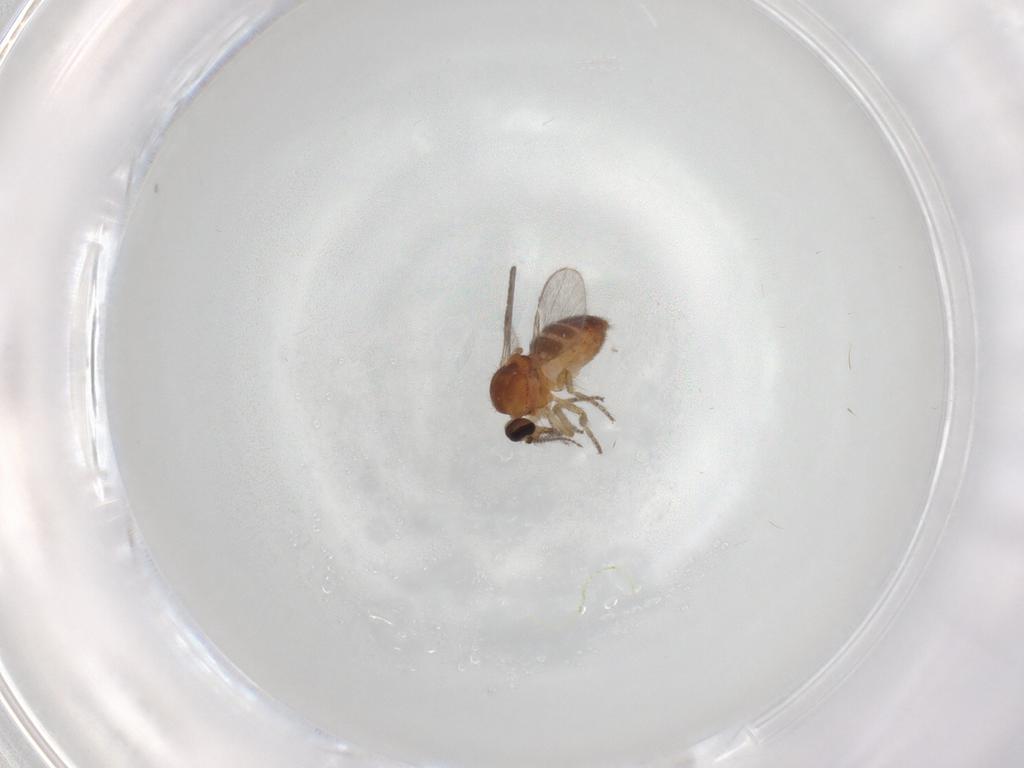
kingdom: Animalia
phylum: Arthropoda
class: Insecta
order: Diptera
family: Ceratopogonidae
